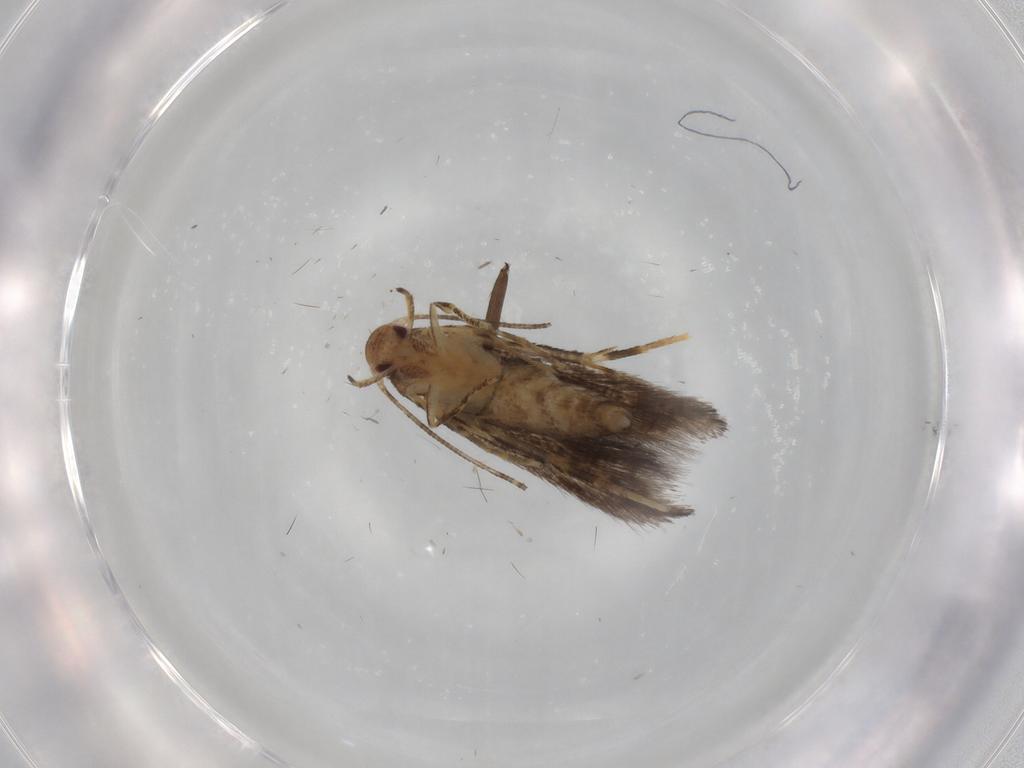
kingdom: Animalia
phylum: Arthropoda
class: Insecta
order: Lepidoptera
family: Momphidae
